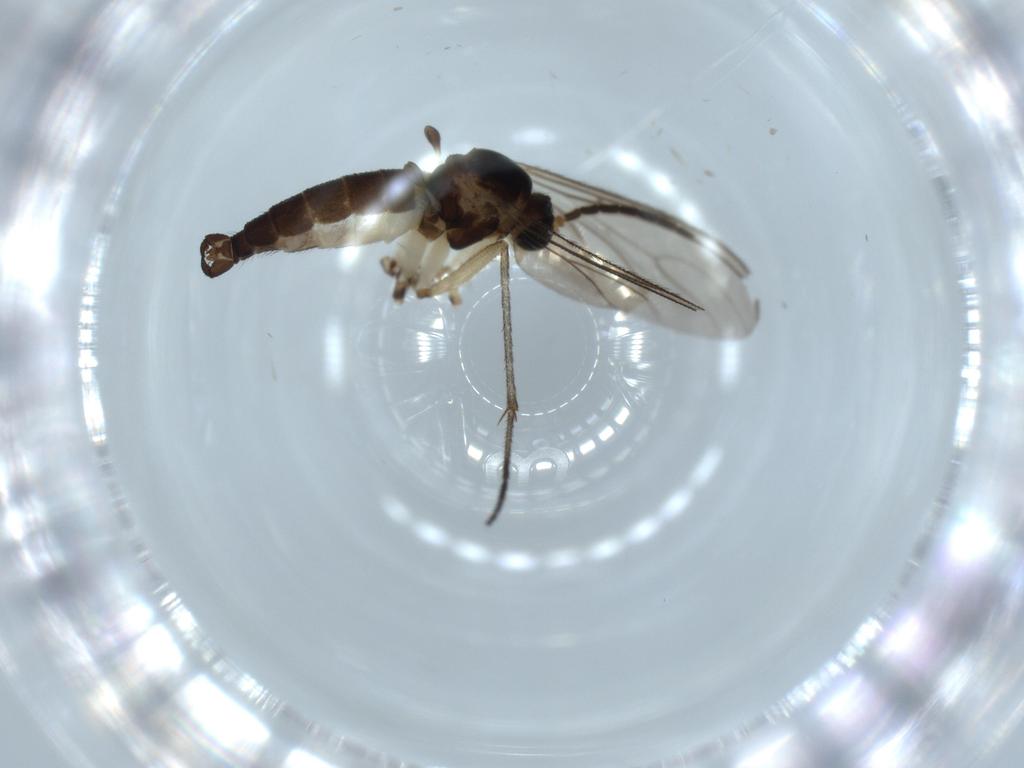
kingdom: Animalia
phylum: Arthropoda
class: Insecta
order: Diptera
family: Sciaridae
